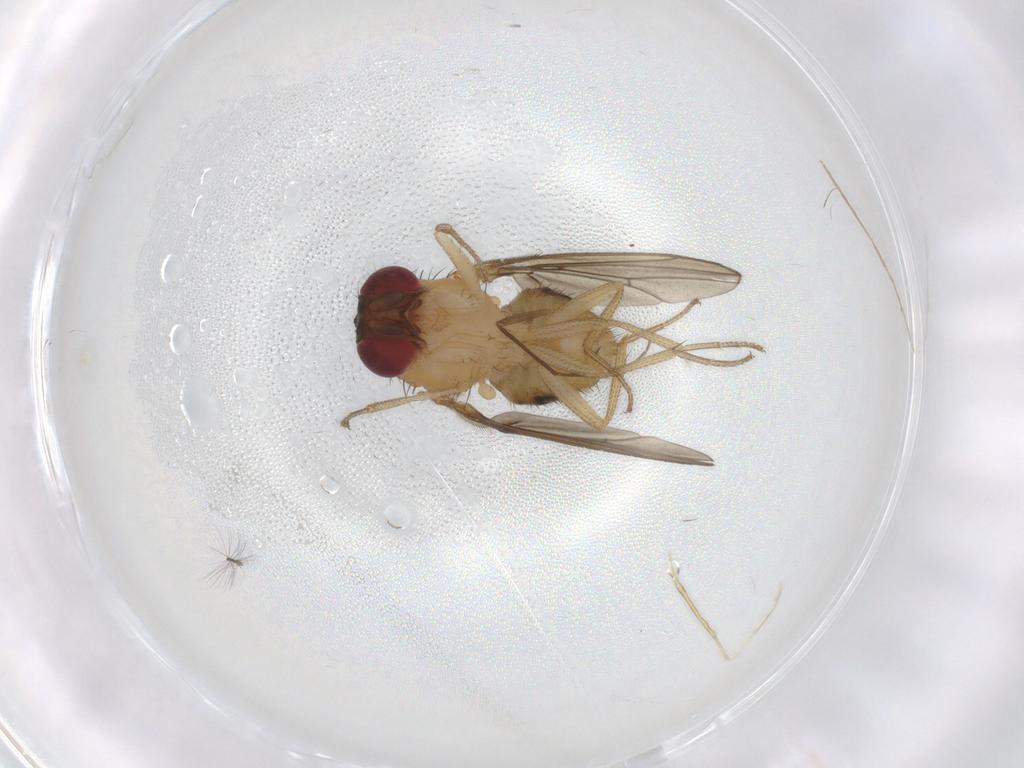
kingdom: Animalia
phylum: Arthropoda
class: Insecta
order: Diptera
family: Drosophilidae
